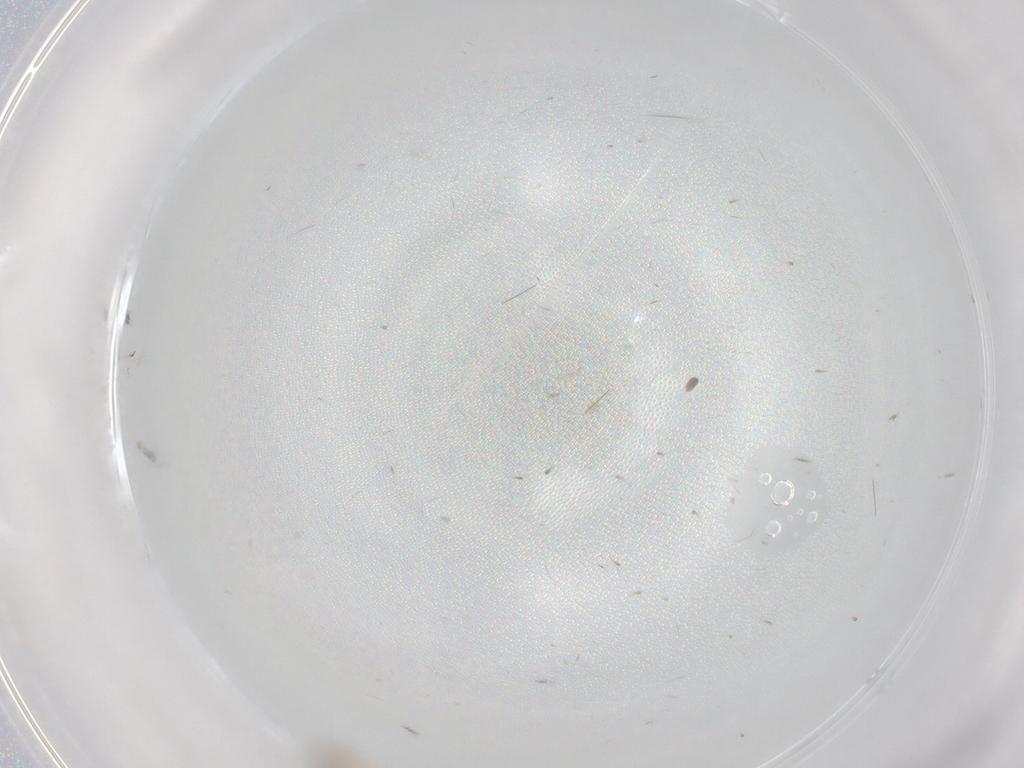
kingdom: Animalia
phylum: Arthropoda
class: Insecta
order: Diptera
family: Cecidomyiidae
